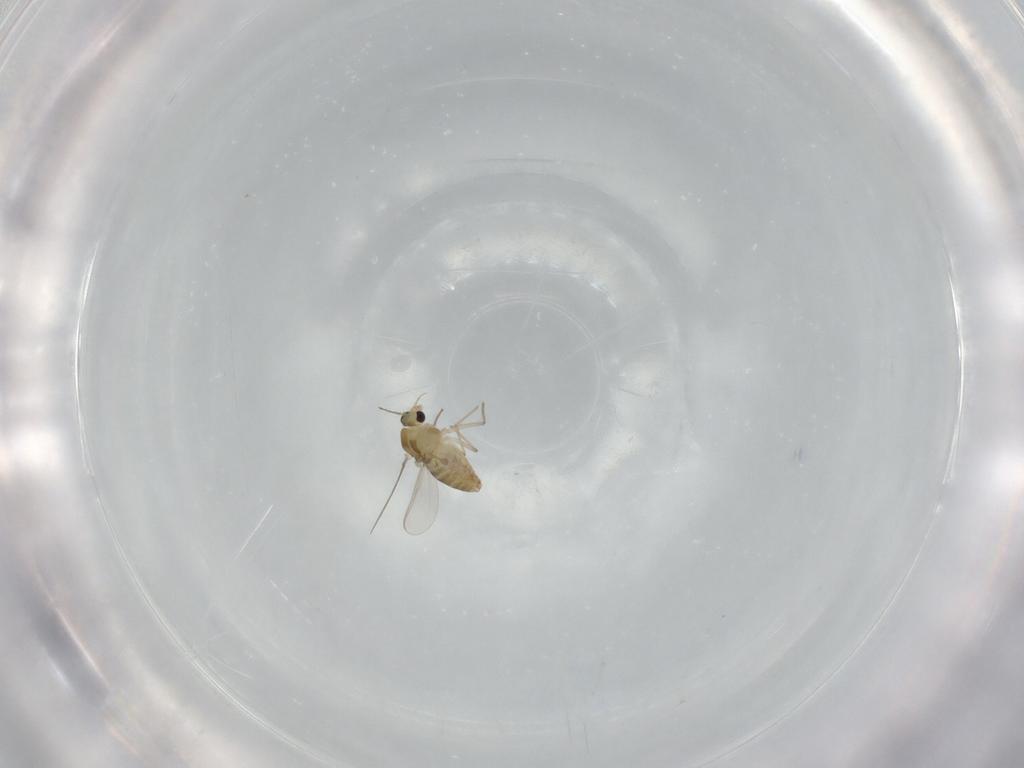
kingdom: Animalia
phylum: Arthropoda
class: Insecta
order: Diptera
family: Chironomidae
